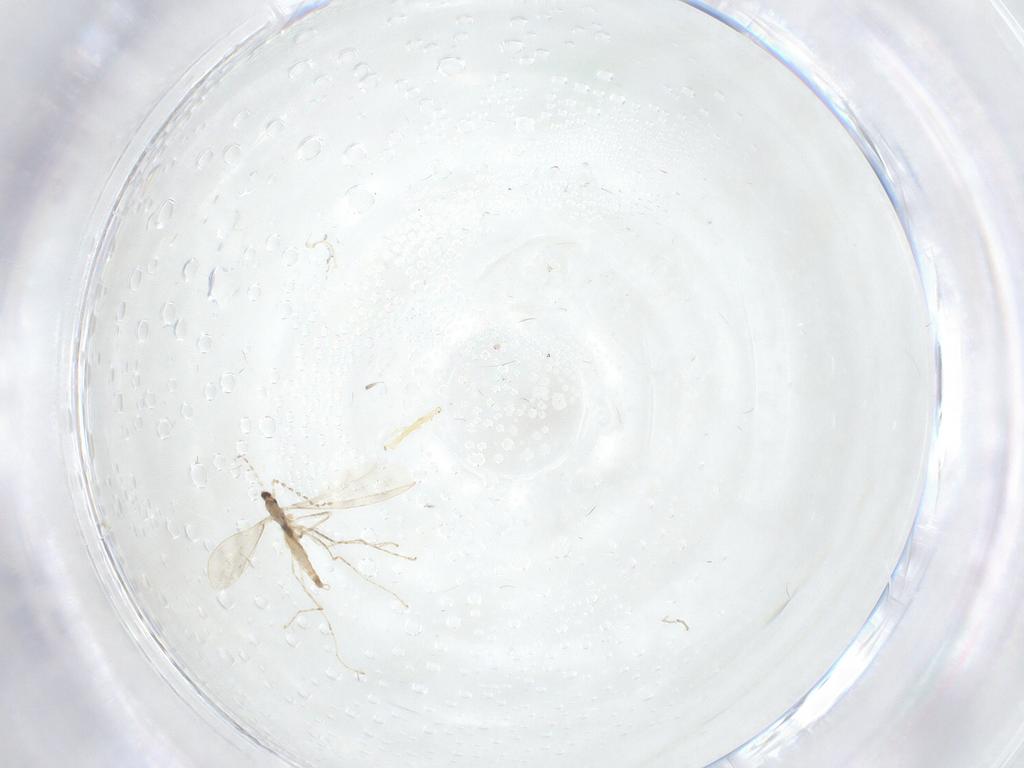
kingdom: Animalia
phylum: Arthropoda
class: Insecta
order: Diptera
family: Cecidomyiidae
